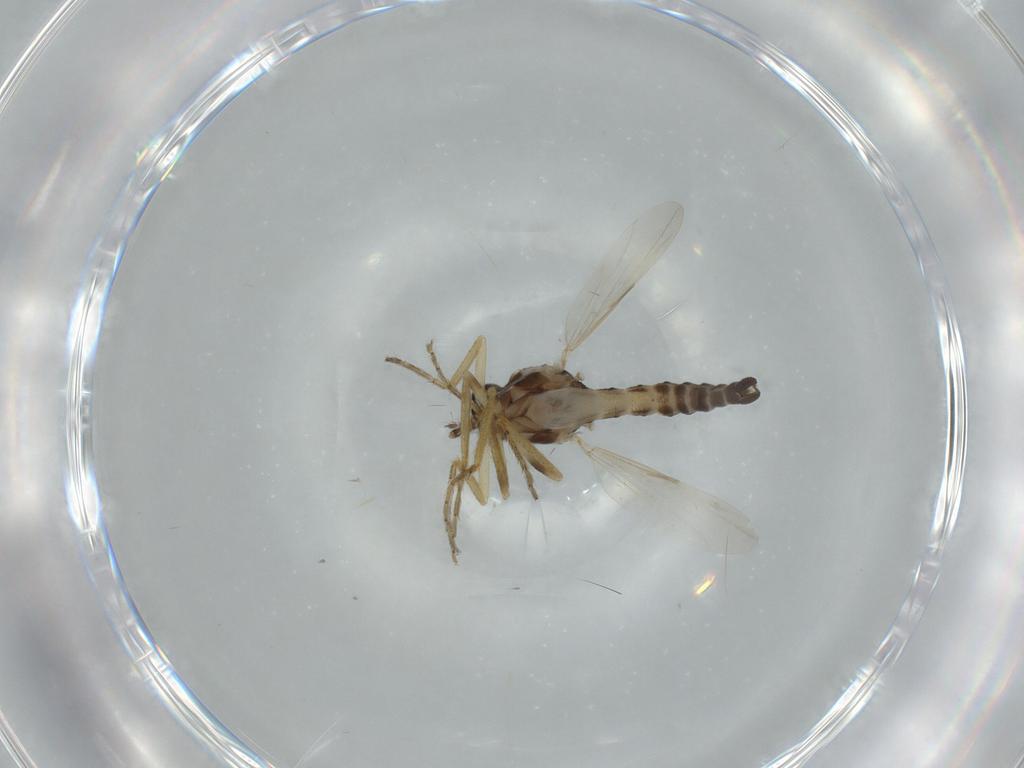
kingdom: Animalia
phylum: Arthropoda
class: Insecta
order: Diptera
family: Ceratopogonidae
